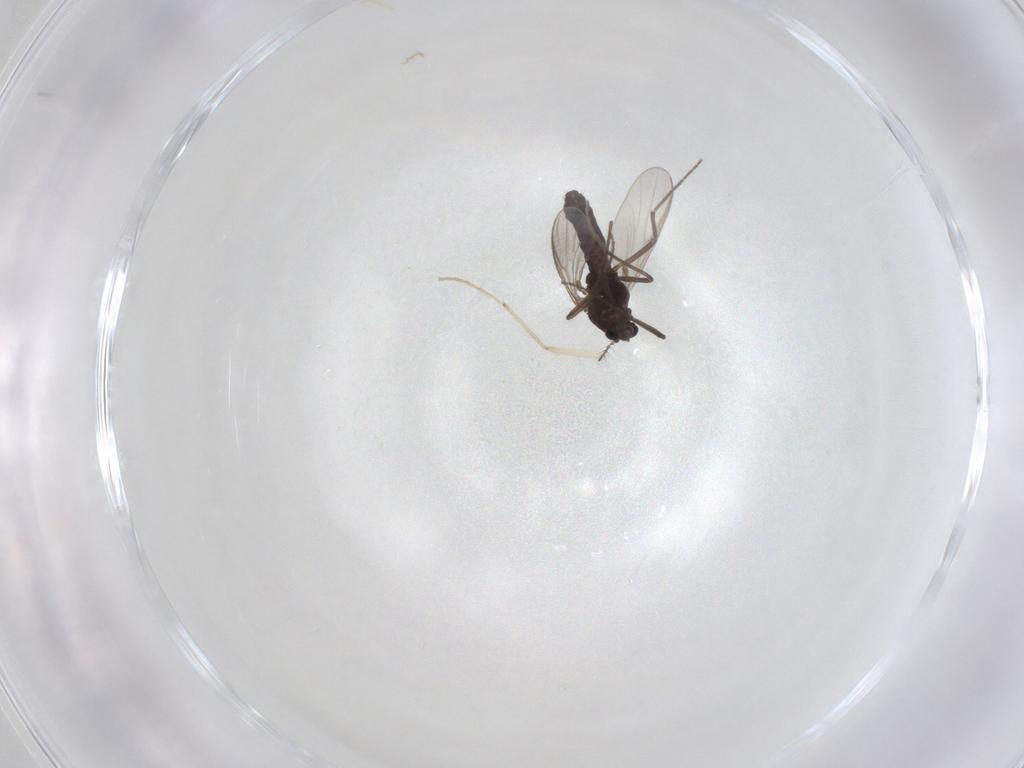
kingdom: Animalia
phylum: Arthropoda
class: Insecta
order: Diptera
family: Chironomidae
